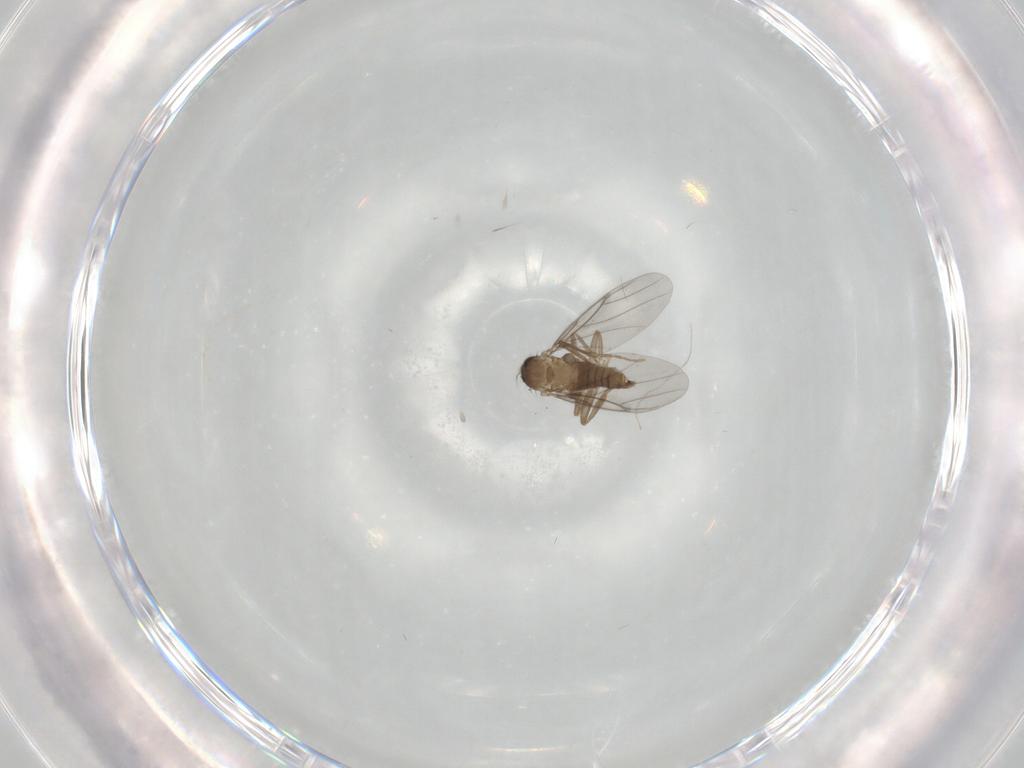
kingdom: Animalia
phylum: Arthropoda
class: Insecta
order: Diptera
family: Cecidomyiidae
